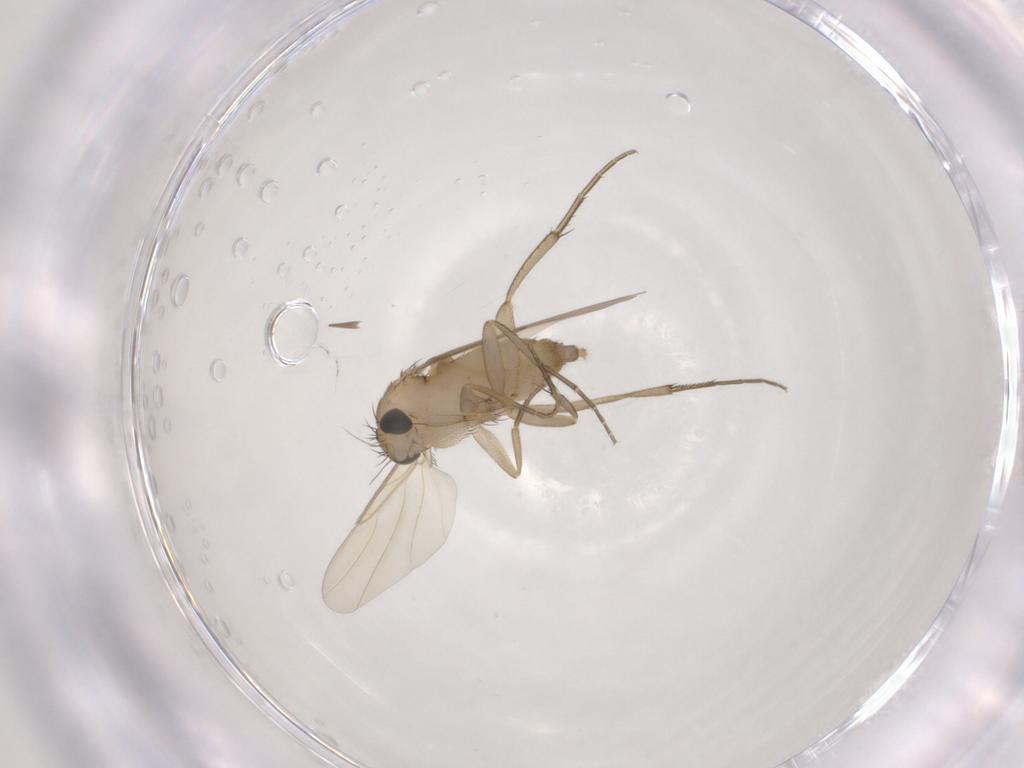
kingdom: Animalia
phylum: Arthropoda
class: Insecta
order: Diptera
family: Phoridae
